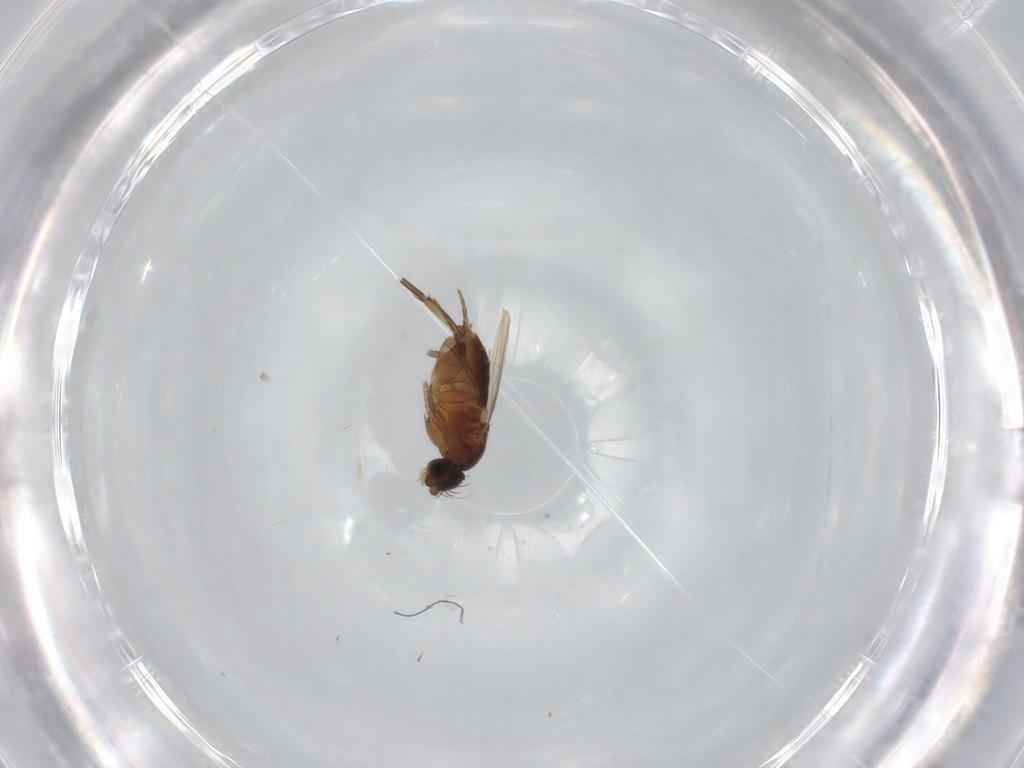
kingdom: Animalia
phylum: Arthropoda
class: Insecta
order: Diptera
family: Phoridae
